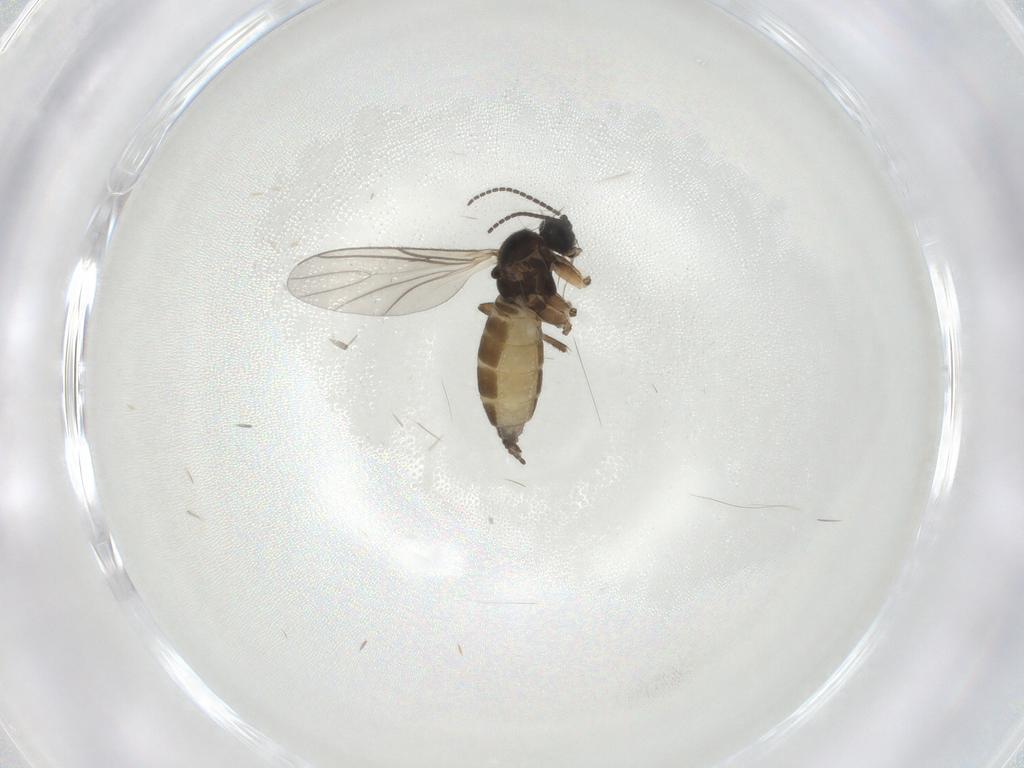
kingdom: Animalia
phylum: Arthropoda
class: Insecta
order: Diptera
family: Sciaridae
